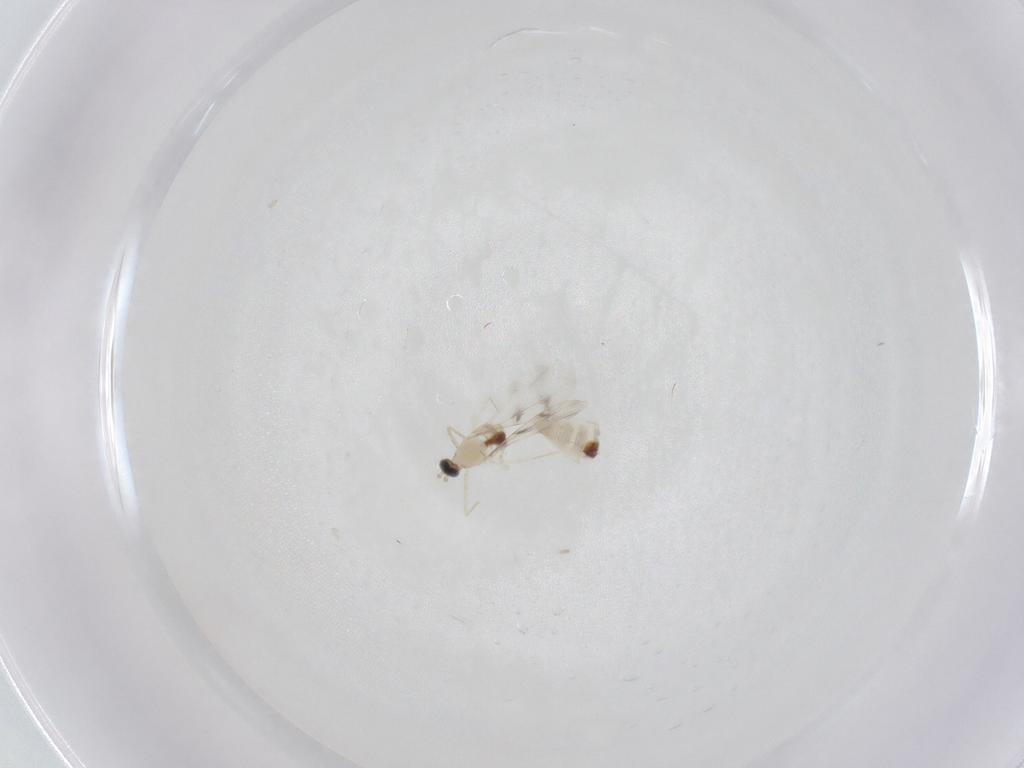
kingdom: Animalia
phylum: Arthropoda
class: Insecta
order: Diptera
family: Cecidomyiidae
